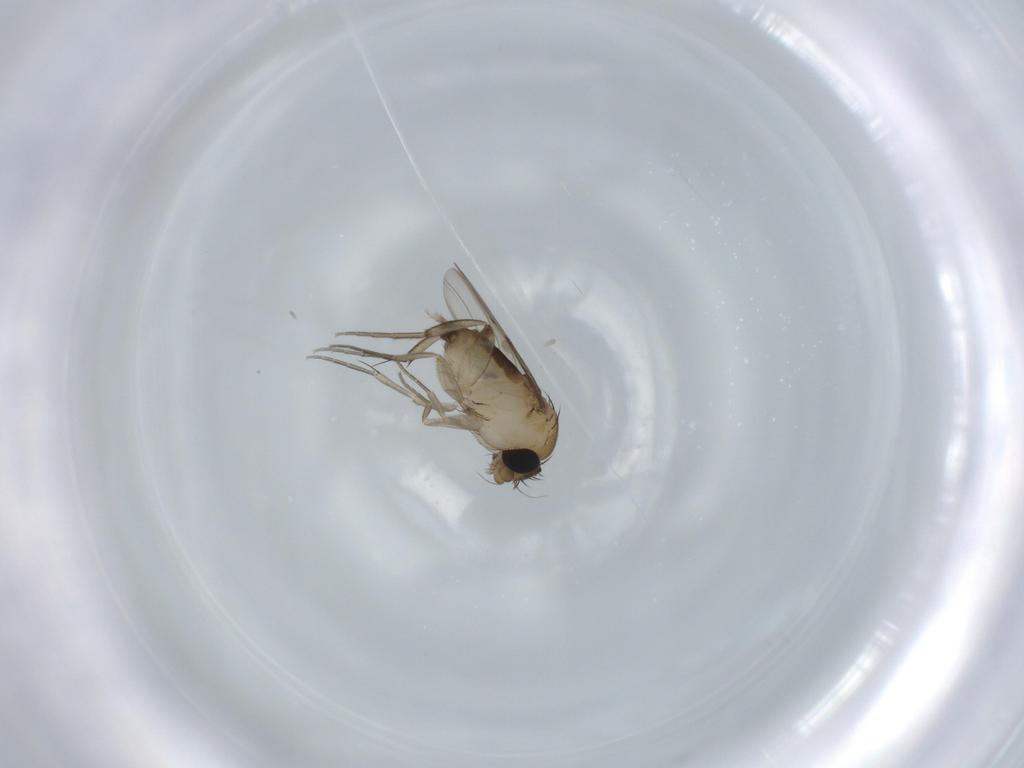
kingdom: Animalia
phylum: Arthropoda
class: Insecta
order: Diptera
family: Phoridae
